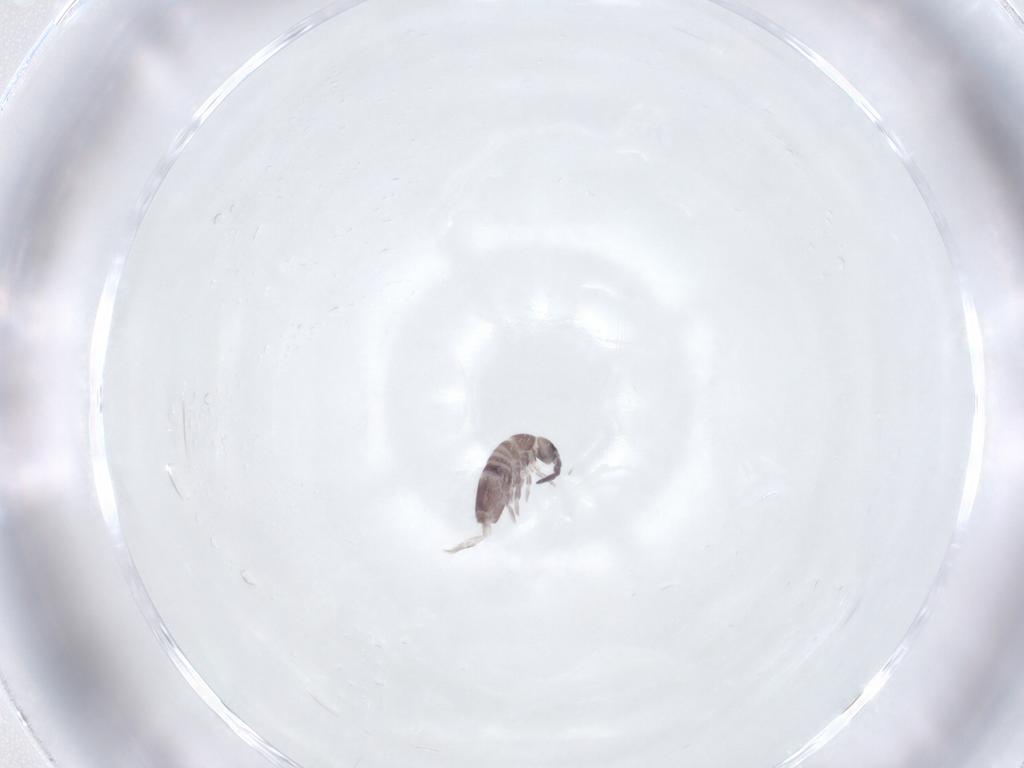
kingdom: Animalia
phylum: Arthropoda
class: Collembola
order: Entomobryomorpha
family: Entomobryidae
